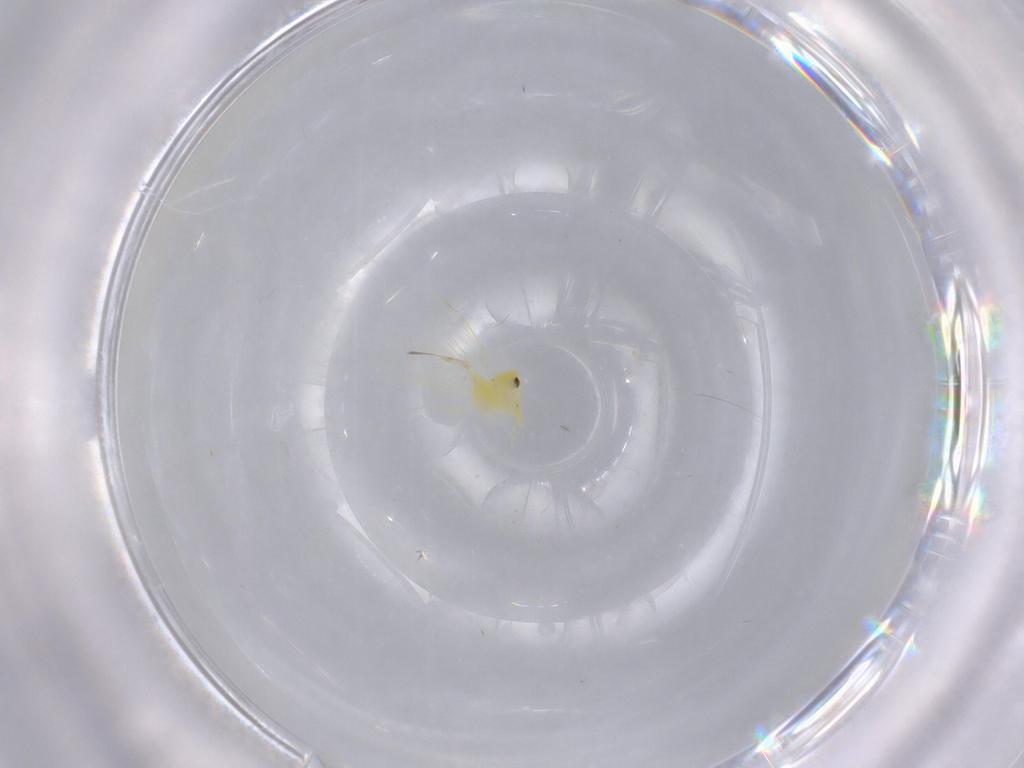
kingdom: Animalia
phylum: Arthropoda
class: Insecta
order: Hemiptera
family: Aleyrodidae
